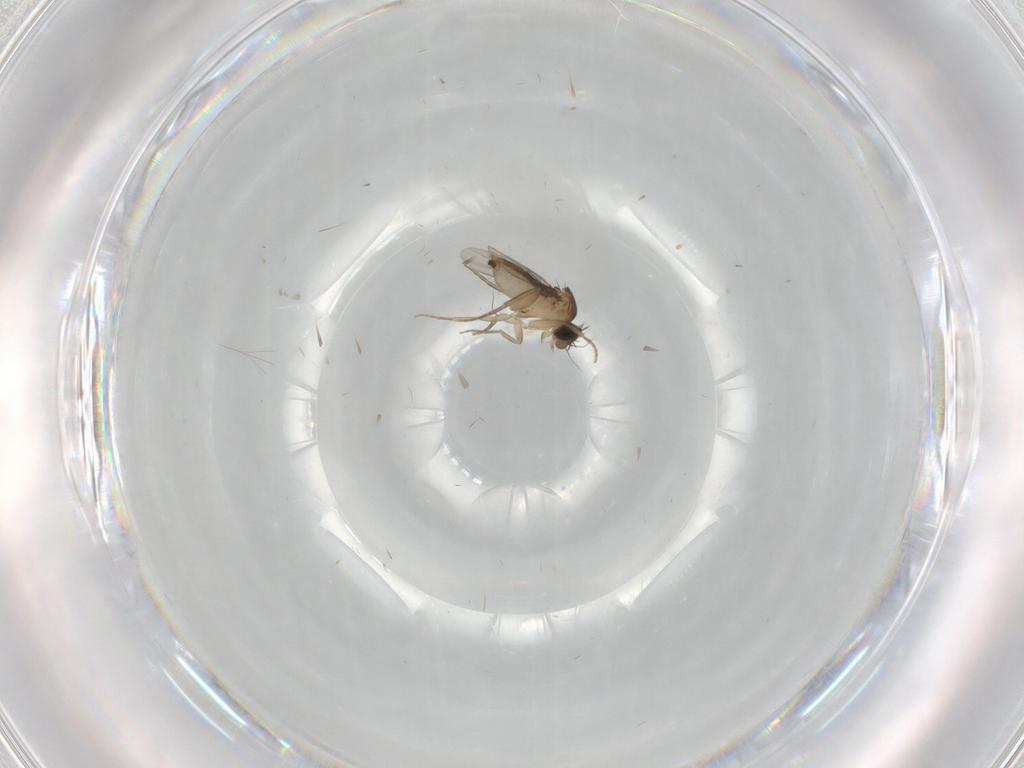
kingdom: Animalia
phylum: Arthropoda
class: Insecta
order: Diptera
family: Phoridae
